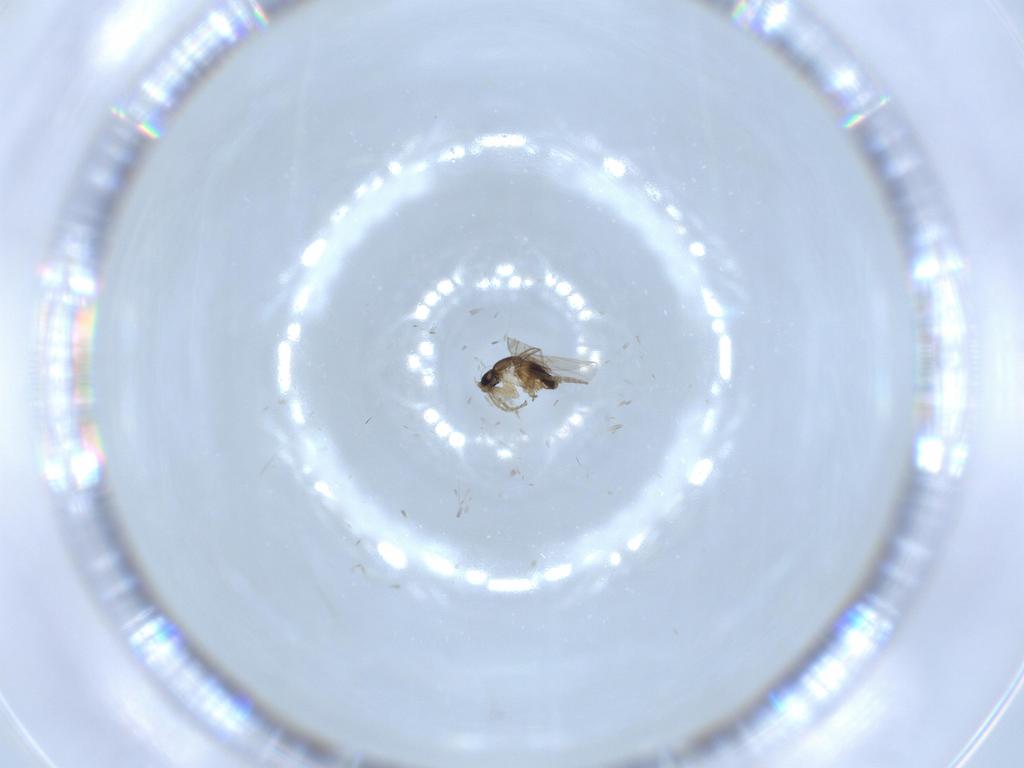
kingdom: Animalia
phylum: Arthropoda
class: Insecta
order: Diptera
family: Phoridae
